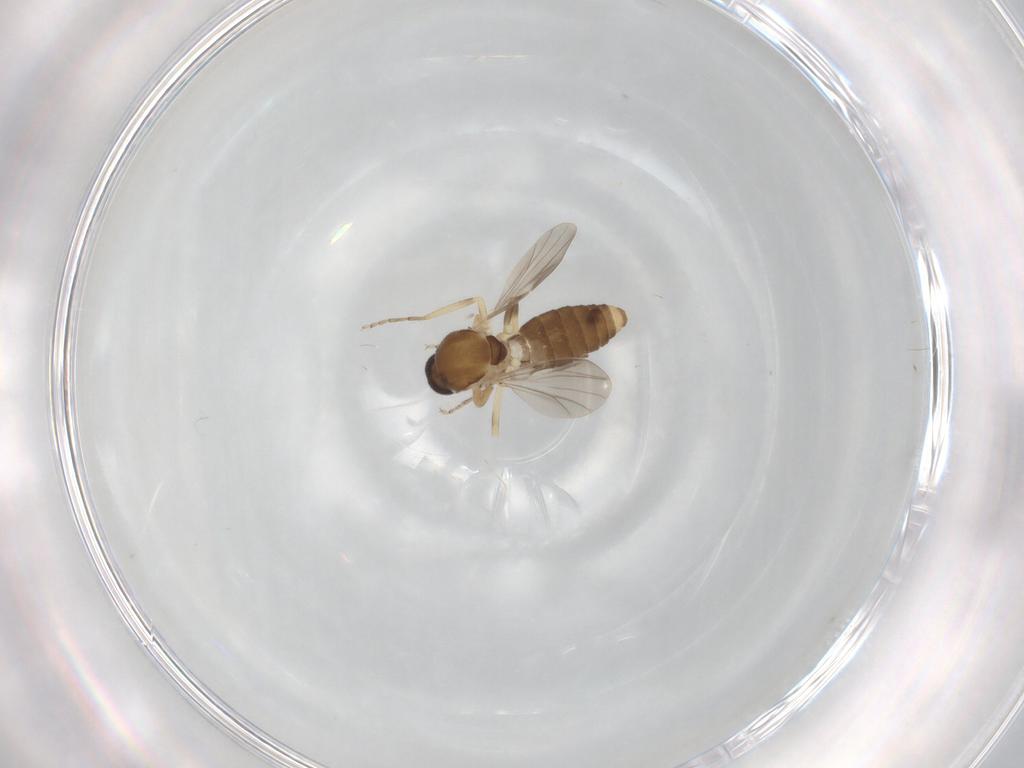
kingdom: Animalia
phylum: Arthropoda
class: Insecta
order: Diptera
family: Ceratopogonidae
